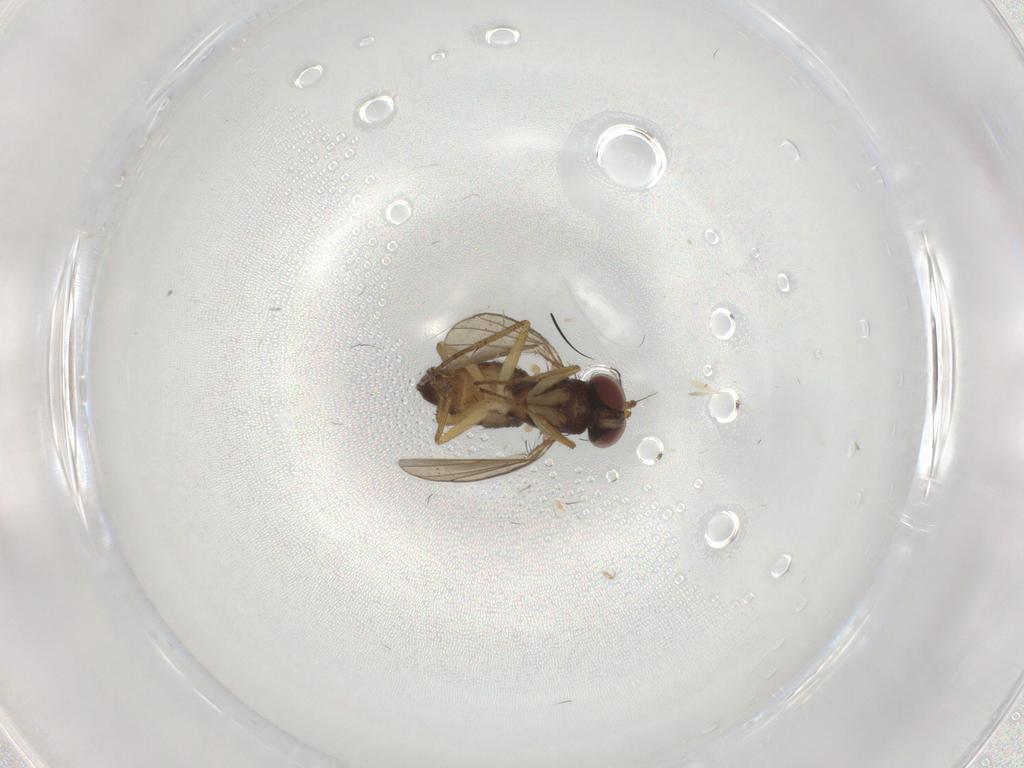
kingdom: Animalia
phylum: Arthropoda
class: Insecta
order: Diptera
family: Dolichopodidae
